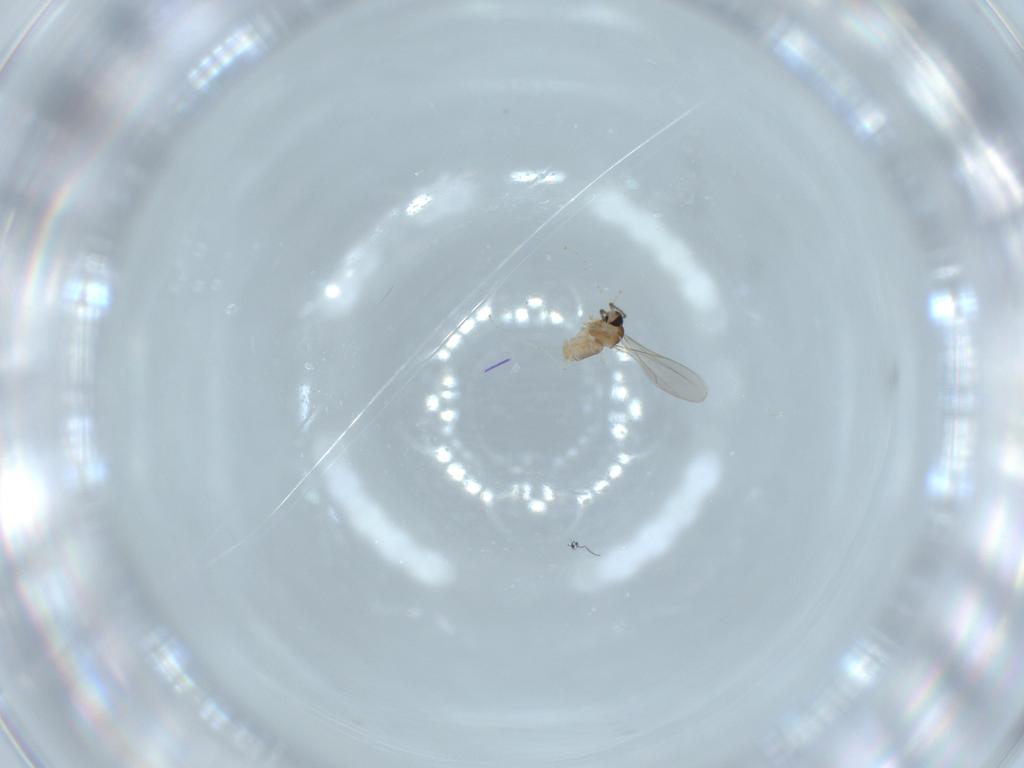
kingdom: Animalia
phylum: Arthropoda
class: Insecta
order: Diptera
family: Cecidomyiidae
